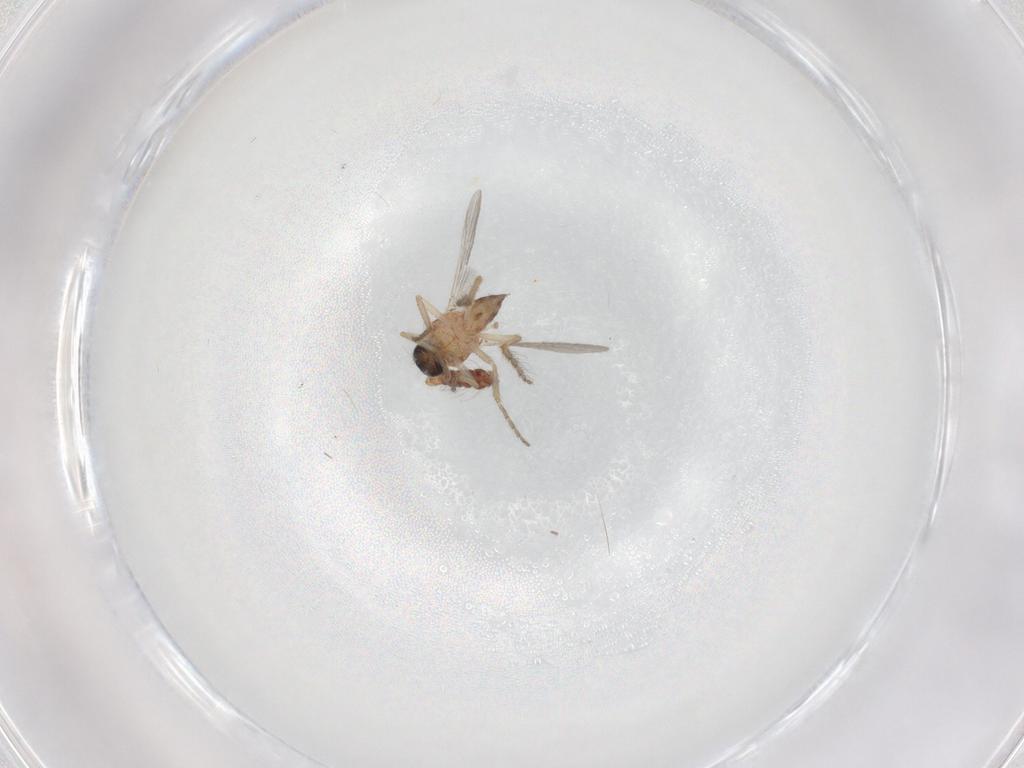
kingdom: Animalia
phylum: Arthropoda
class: Insecta
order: Diptera
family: Ceratopogonidae
